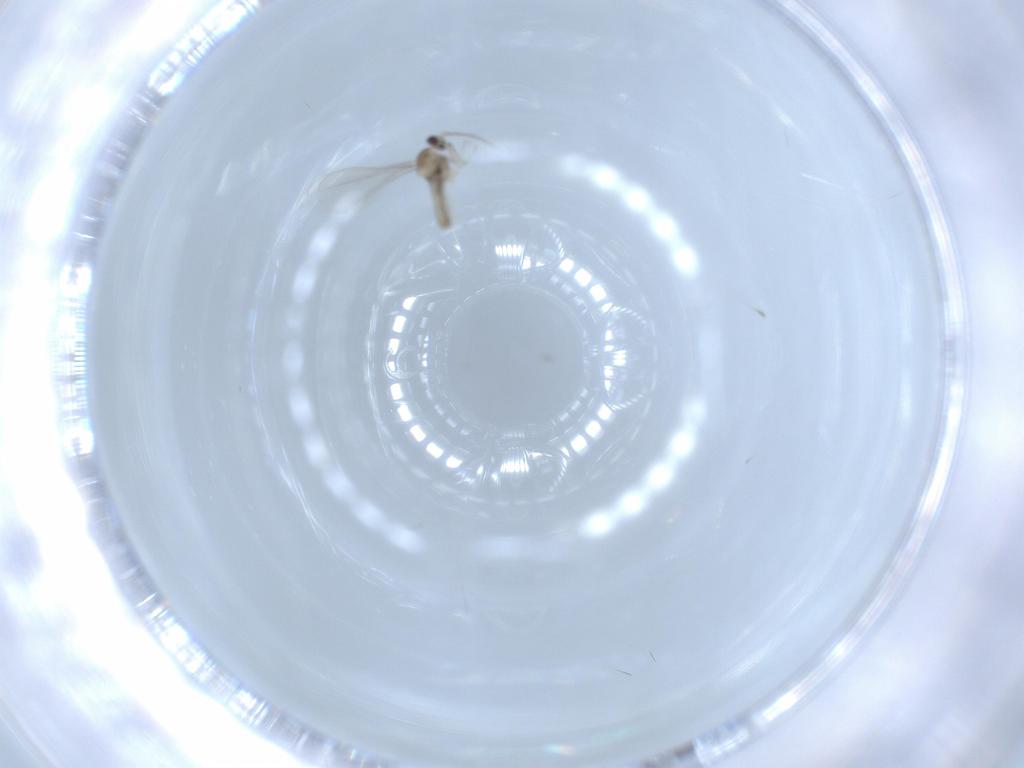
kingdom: Animalia
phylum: Arthropoda
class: Insecta
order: Diptera
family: Cecidomyiidae
